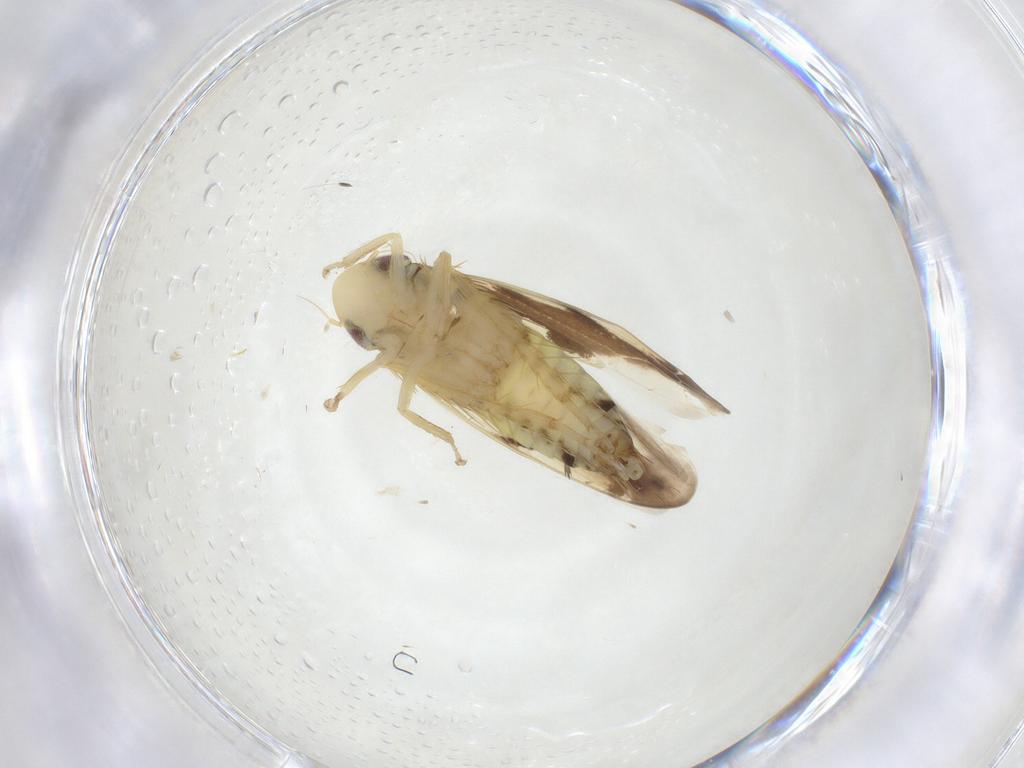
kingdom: Animalia
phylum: Arthropoda
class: Insecta
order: Hemiptera
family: Cicadellidae
